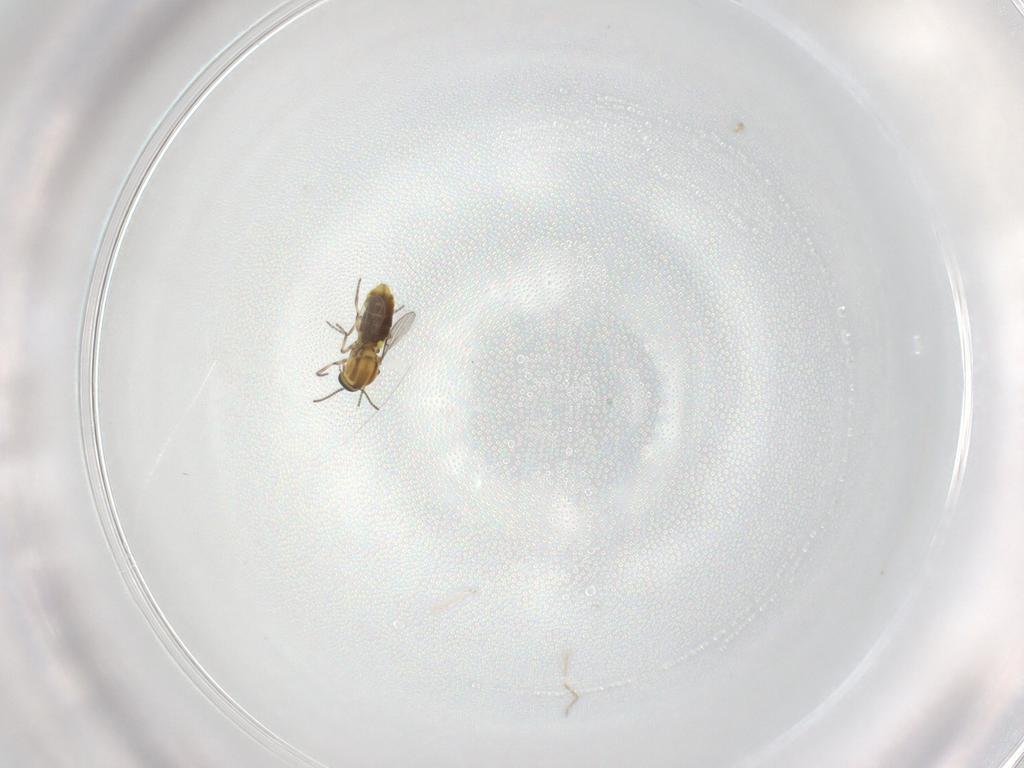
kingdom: Animalia
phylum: Arthropoda
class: Insecta
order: Diptera
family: Ceratopogonidae
